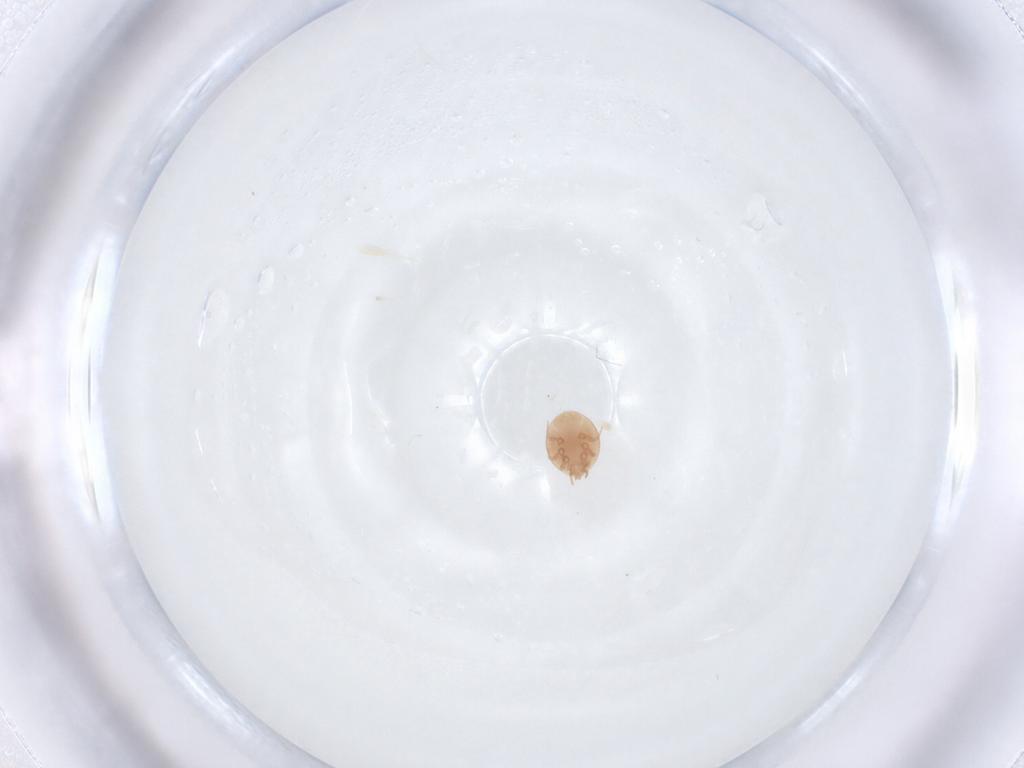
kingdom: Animalia
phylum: Arthropoda
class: Arachnida
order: Mesostigmata
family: Trematuridae
